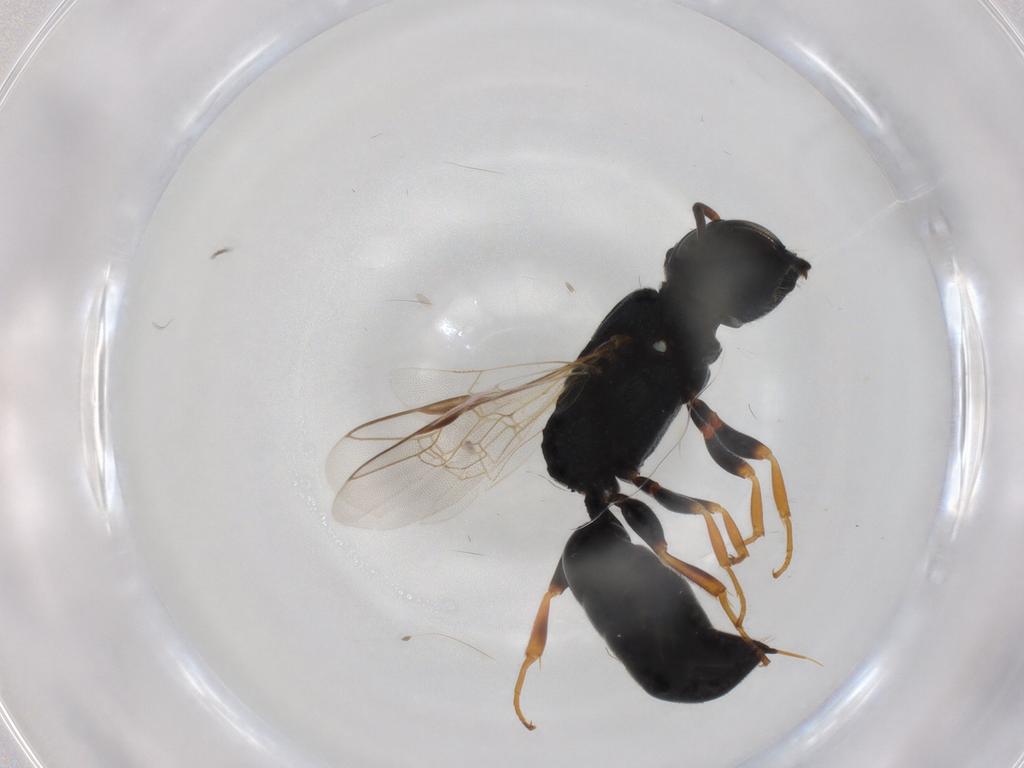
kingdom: Animalia
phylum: Arthropoda
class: Insecta
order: Hymenoptera
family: Crabronidae
